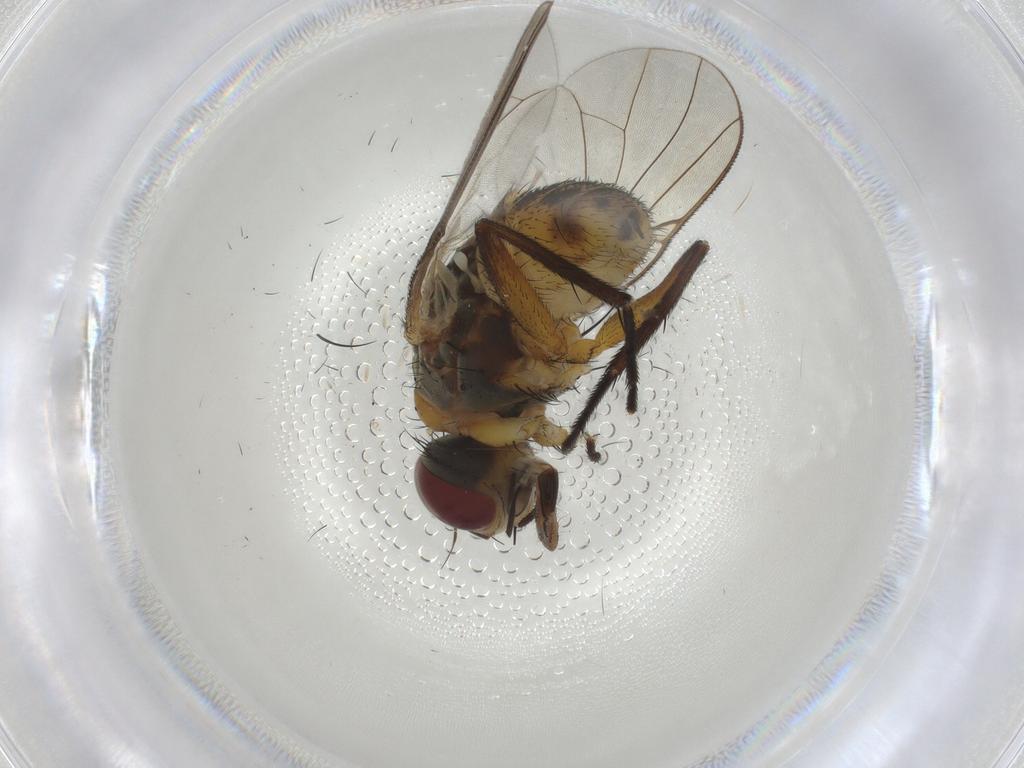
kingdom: Animalia
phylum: Arthropoda
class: Insecta
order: Diptera
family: Muscidae
